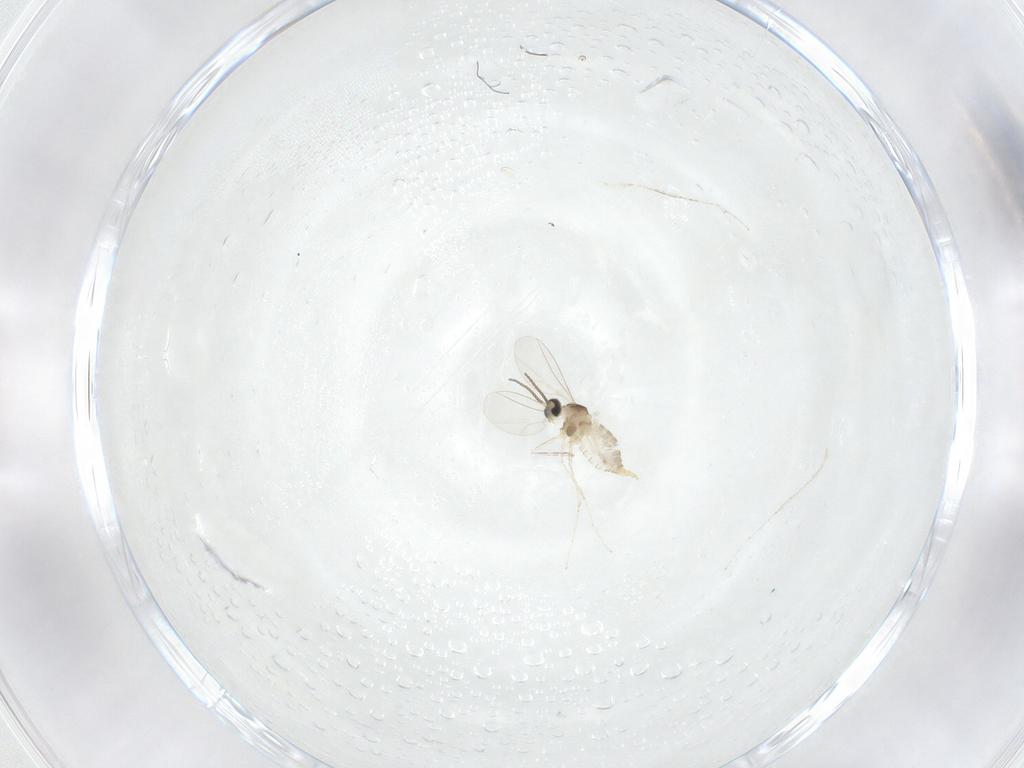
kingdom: Animalia
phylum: Arthropoda
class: Insecta
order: Diptera
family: Cecidomyiidae
